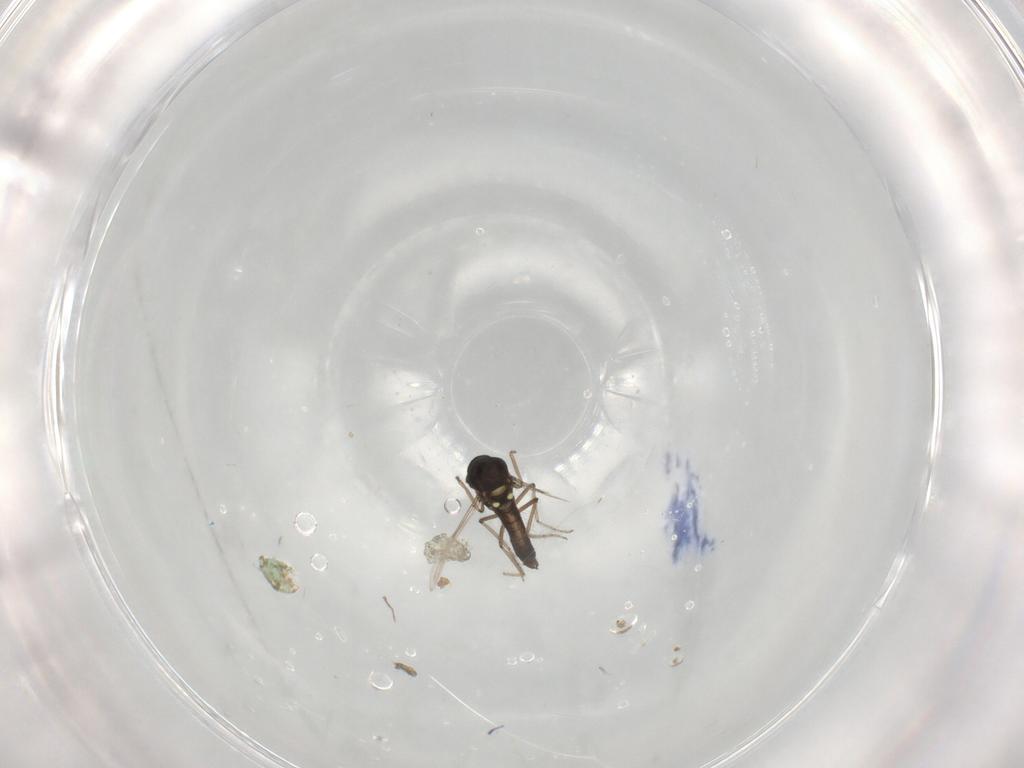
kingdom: Animalia
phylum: Arthropoda
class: Insecta
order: Diptera
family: Ceratopogonidae
